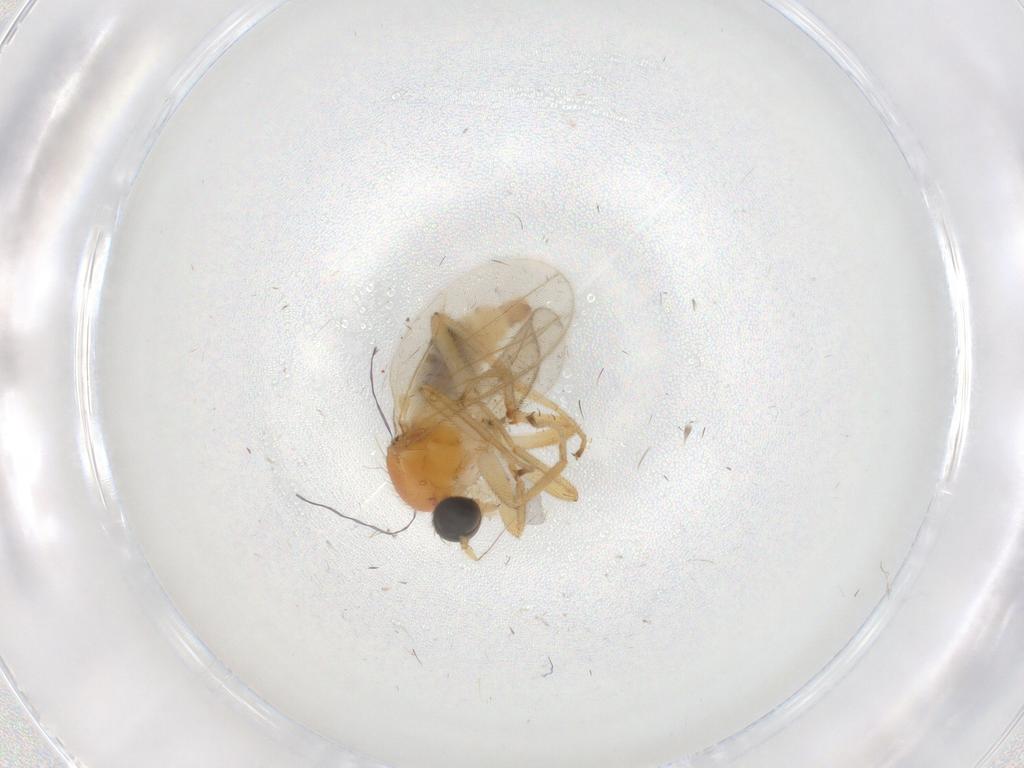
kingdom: Animalia
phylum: Arthropoda
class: Insecta
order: Diptera
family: Hybotidae
